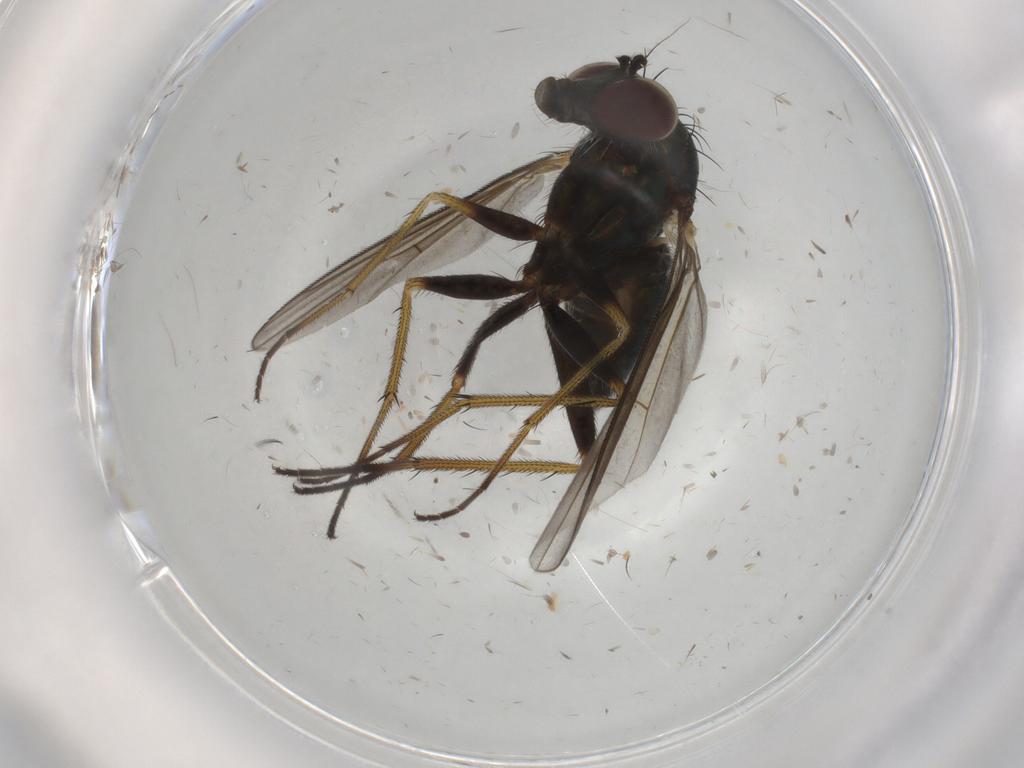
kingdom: Animalia
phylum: Arthropoda
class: Insecta
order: Diptera
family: Dolichopodidae
